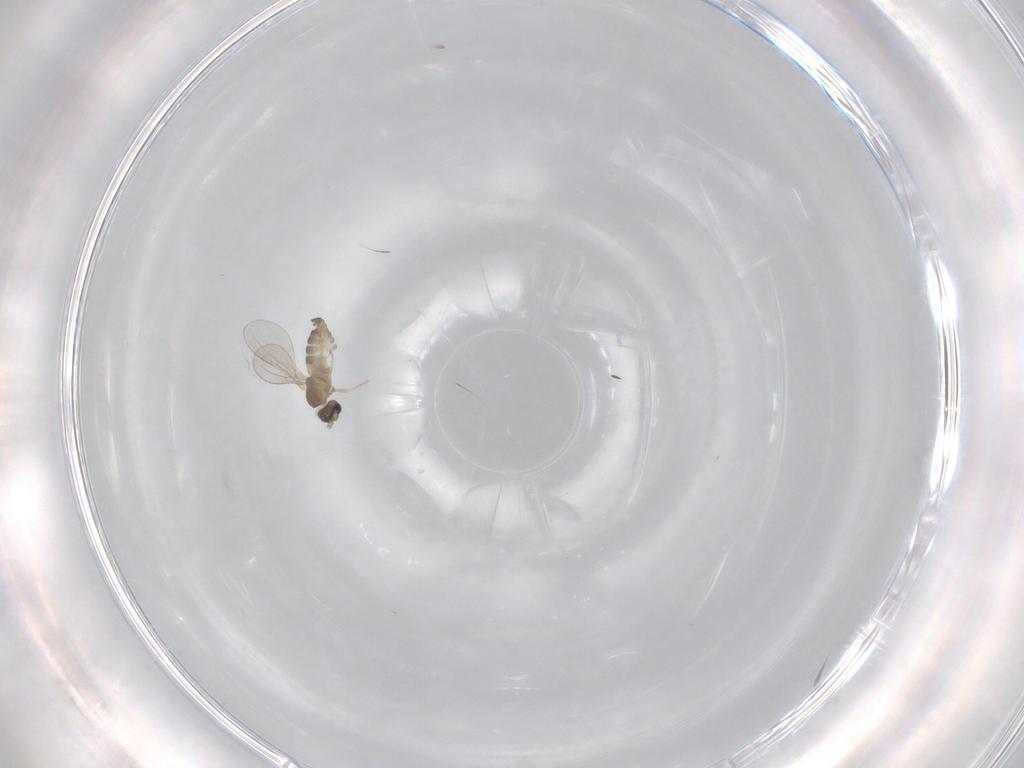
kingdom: Animalia
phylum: Arthropoda
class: Insecta
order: Diptera
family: Cecidomyiidae
